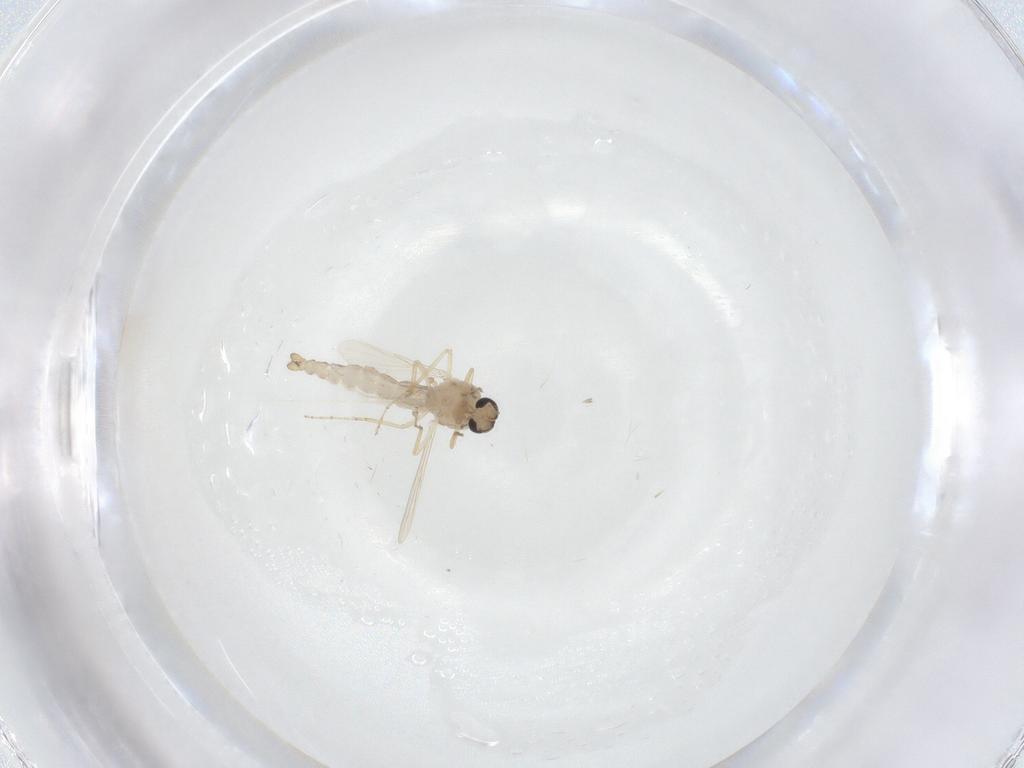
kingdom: Animalia
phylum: Arthropoda
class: Insecta
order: Diptera
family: Ceratopogonidae
